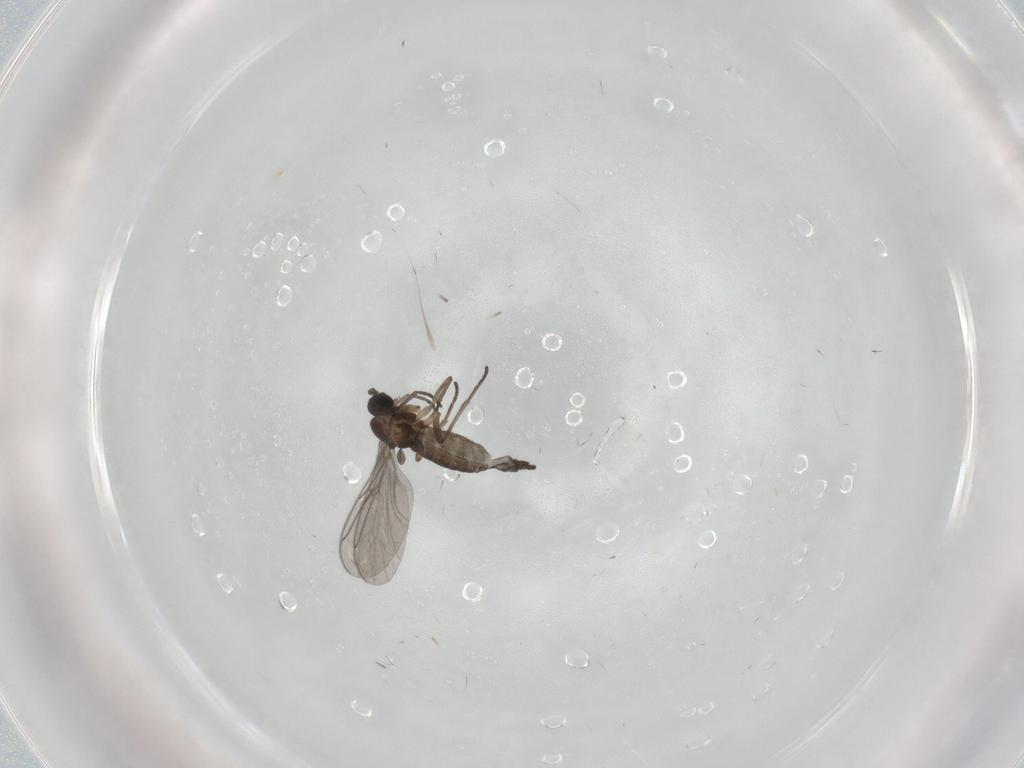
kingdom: Animalia
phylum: Arthropoda
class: Insecta
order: Diptera
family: Sciaridae
